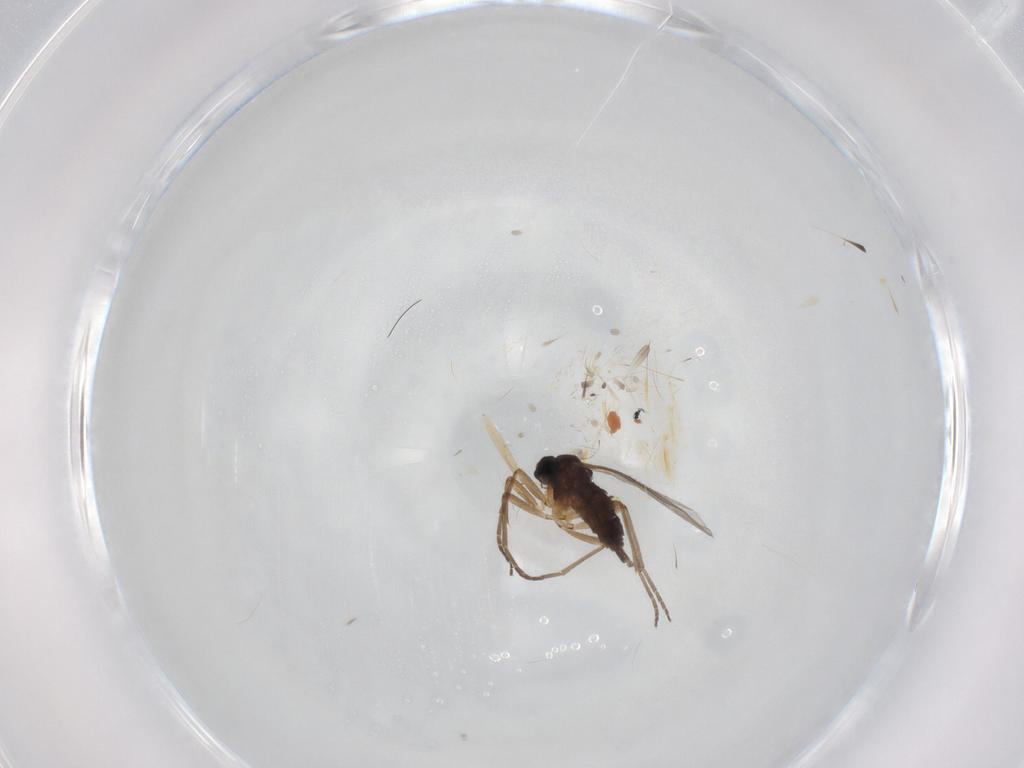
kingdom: Animalia
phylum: Arthropoda
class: Insecta
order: Diptera
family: Sciaridae
